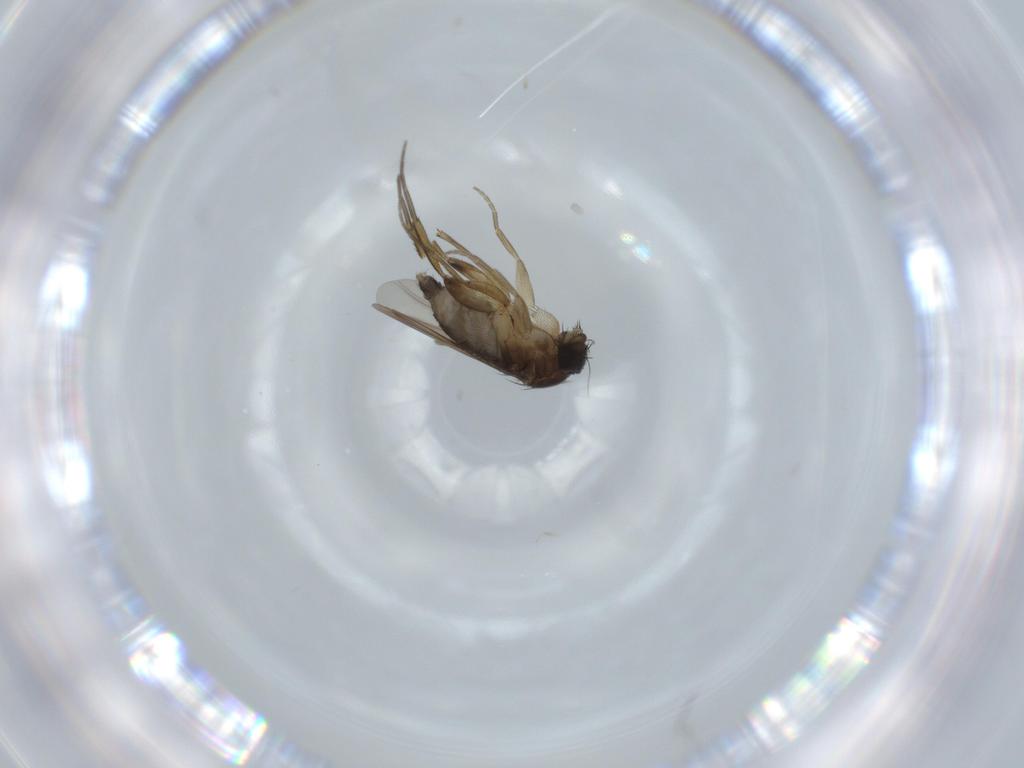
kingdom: Animalia
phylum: Arthropoda
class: Insecta
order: Diptera
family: Phoridae
